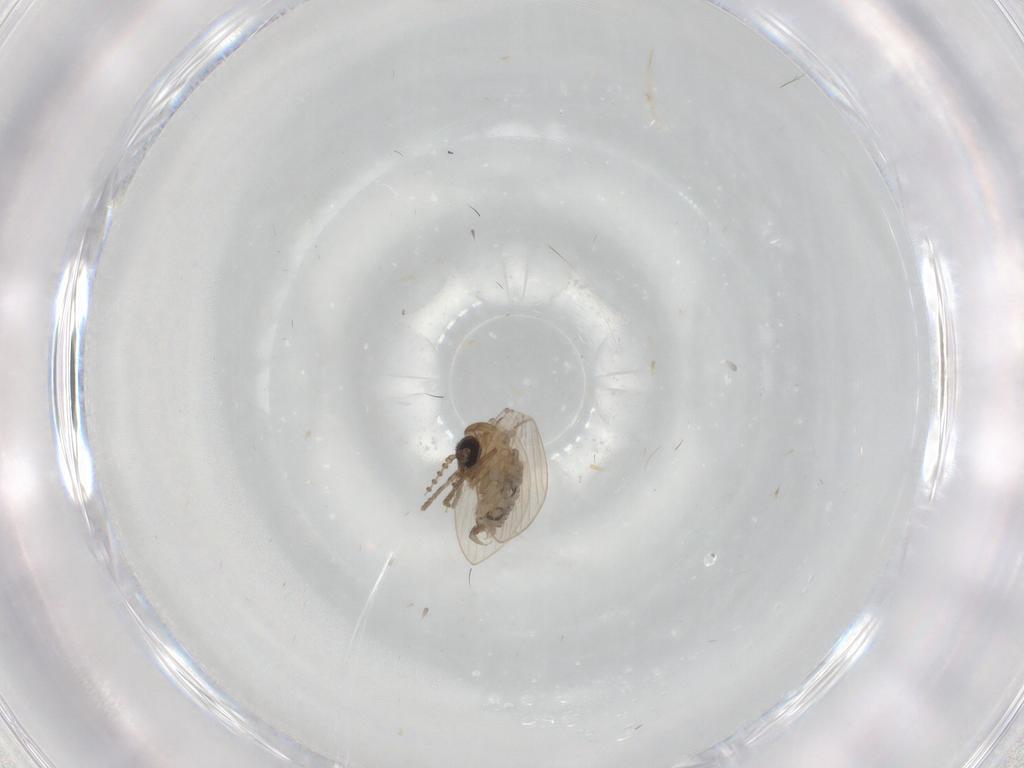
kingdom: Animalia
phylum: Arthropoda
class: Insecta
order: Diptera
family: Psychodidae
